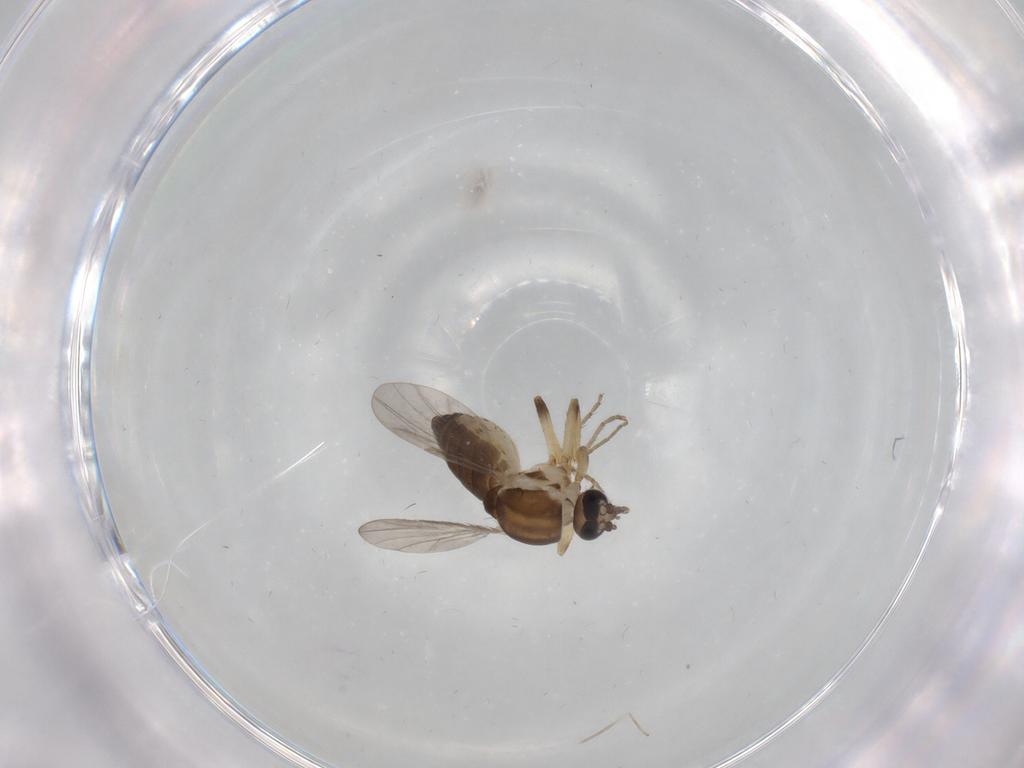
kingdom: Animalia
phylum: Arthropoda
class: Insecta
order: Diptera
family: Ceratopogonidae
